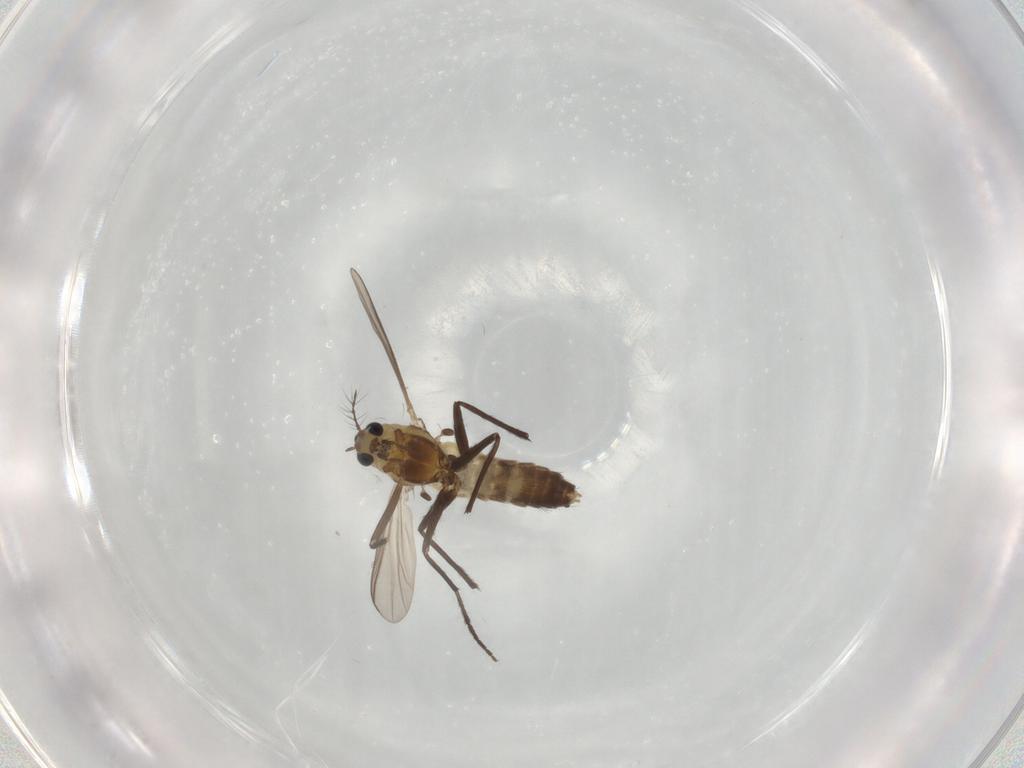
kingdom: Animalia
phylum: Arthropoda
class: Insecta
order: Diptera
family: Chironomidae
